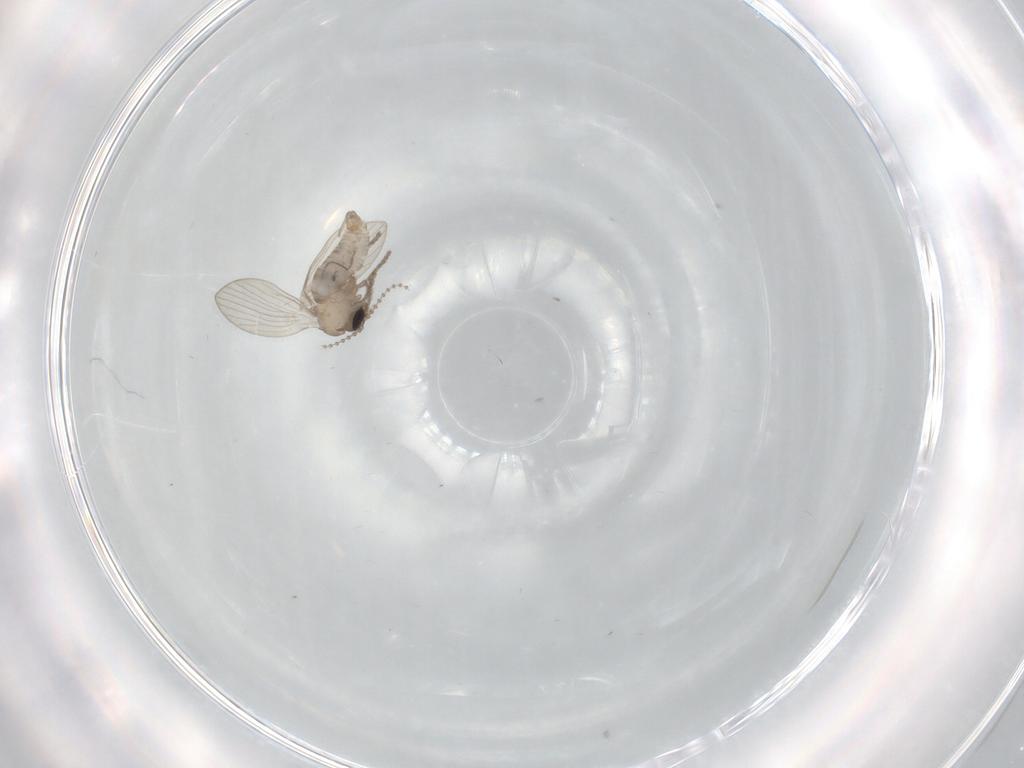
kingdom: Animalia
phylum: Arthropoda
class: Insecta
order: Diptera
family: Psychodidae
